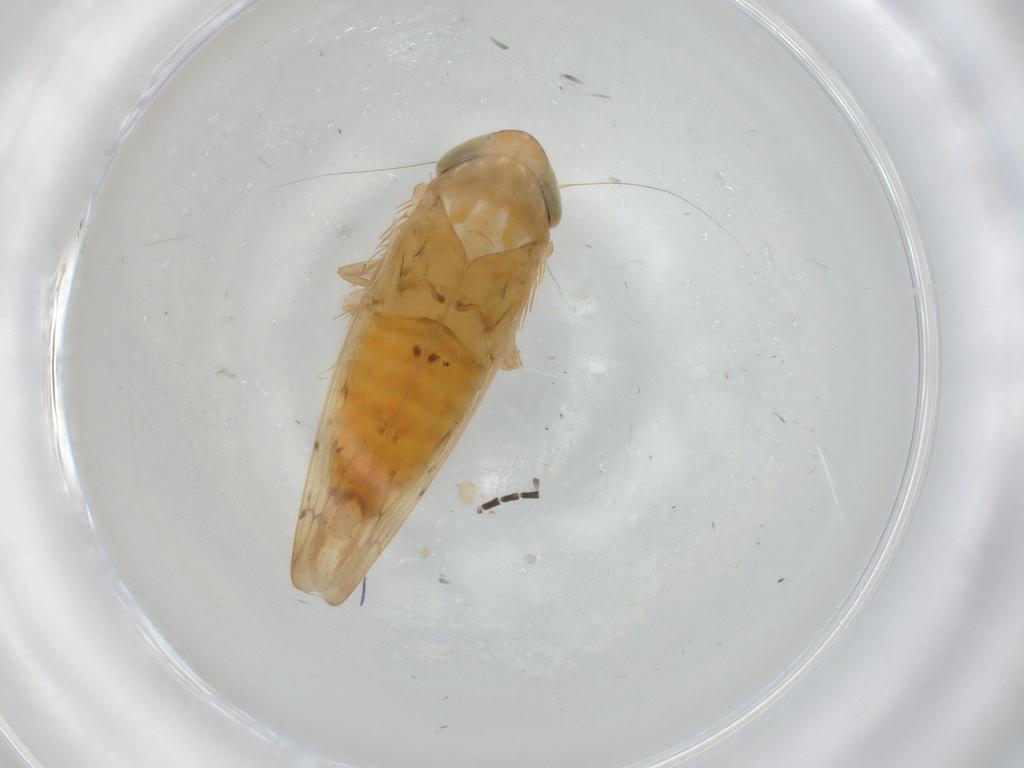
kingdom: Animalia
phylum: Arthropoda
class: Insecta
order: Hemiptera
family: Cicadellidae
